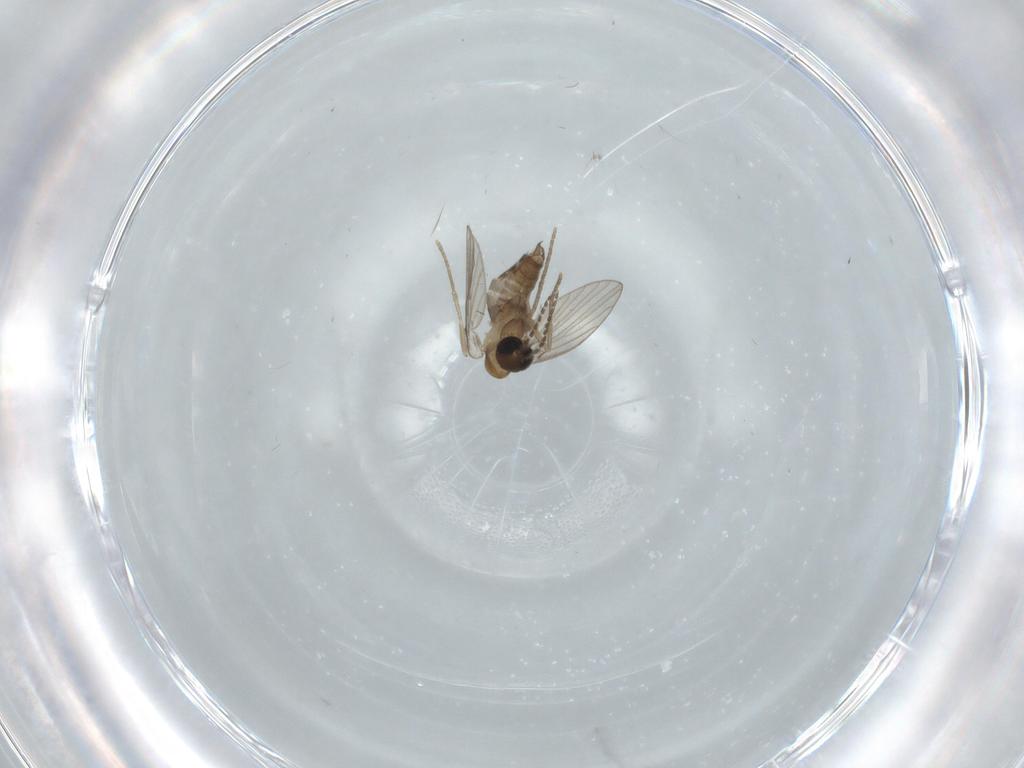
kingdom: Animalia
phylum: Arthropoda
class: Insecta
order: Diptera
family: Psychodidae
